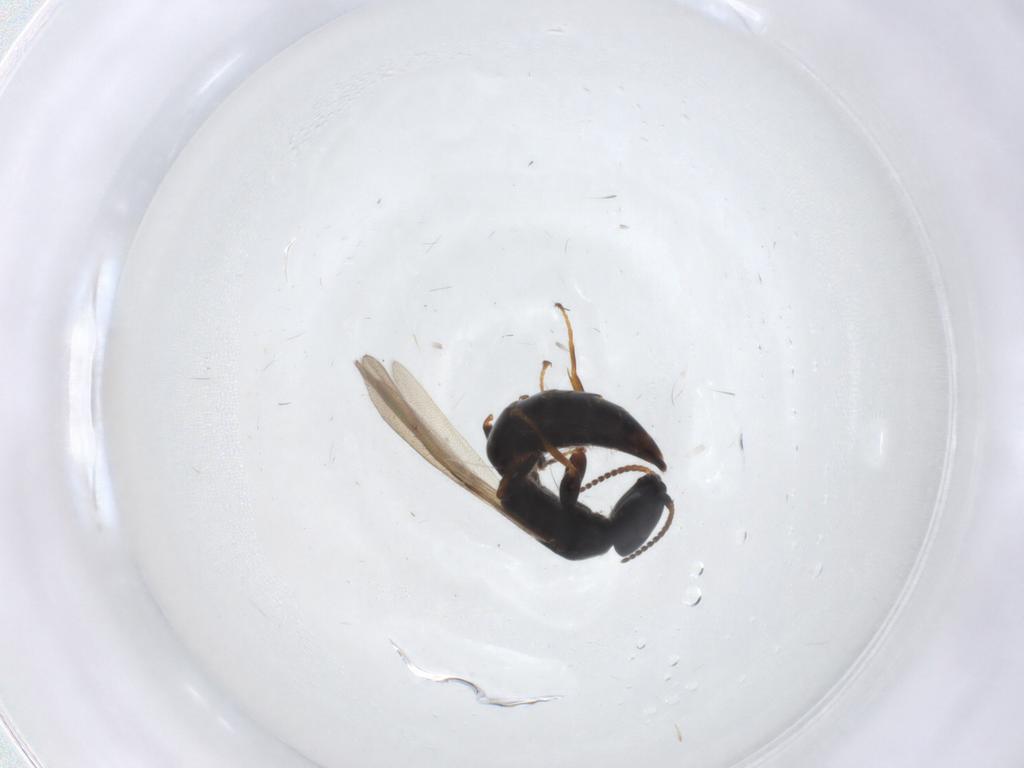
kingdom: Animalia
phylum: Arthropoda
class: Insecta
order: Hymenoptera
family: Bethylidae
